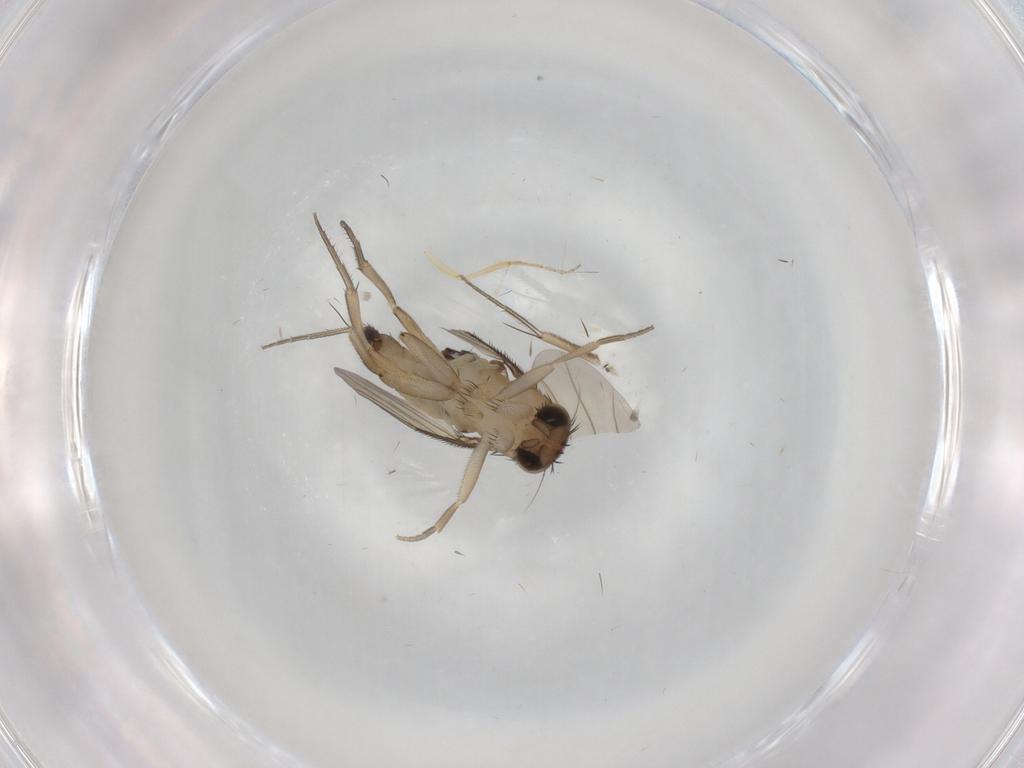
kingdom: Animalia
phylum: Arthropoda
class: Insecta
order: Diptera
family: Phoridae
